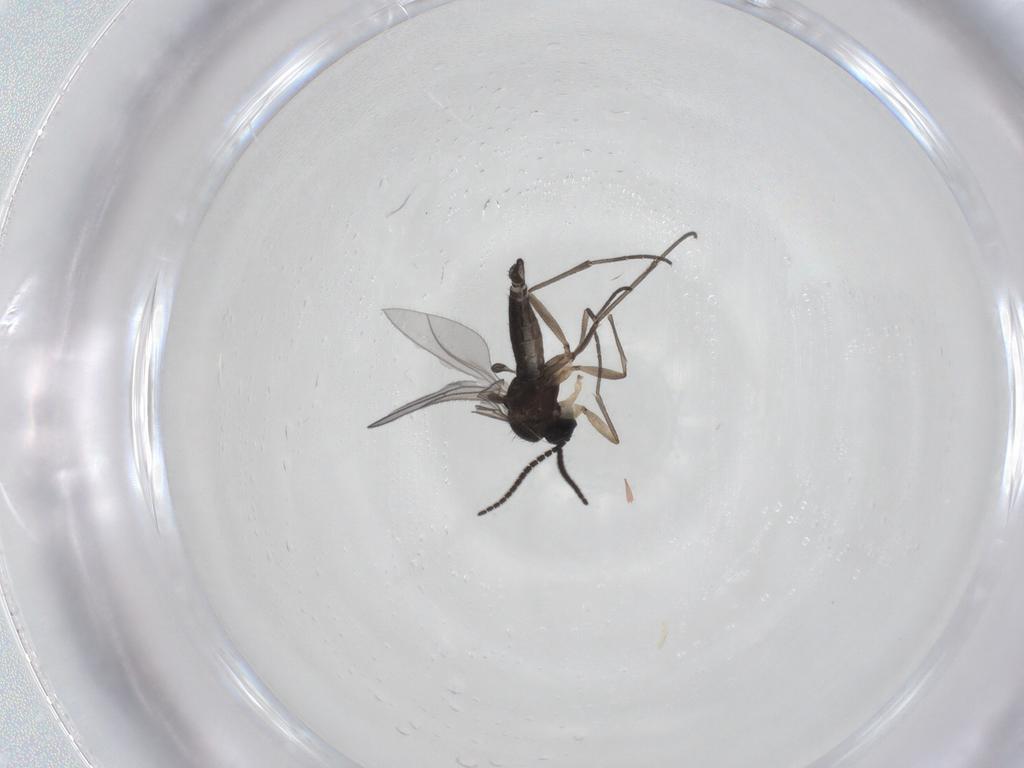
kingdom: Animalia
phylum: Arthropoda
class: Insecta
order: Diptera
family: Sciaridae
